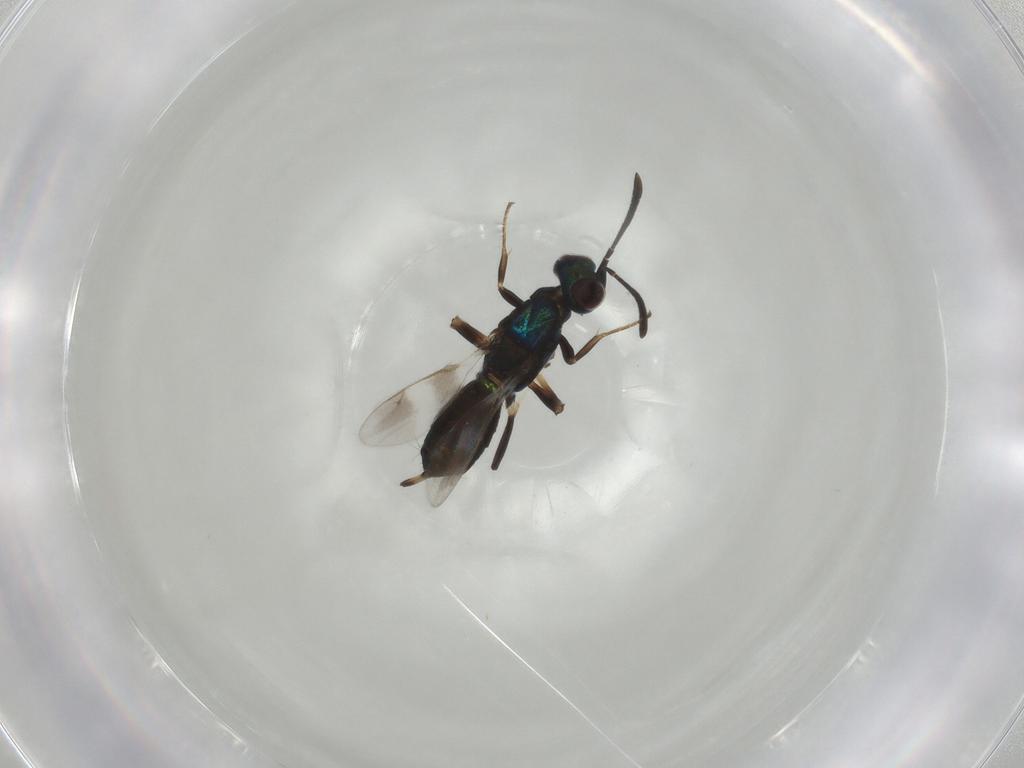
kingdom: Animalia
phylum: Arthropoda
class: Insecta
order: Hymenoptera
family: Eupelmidae
